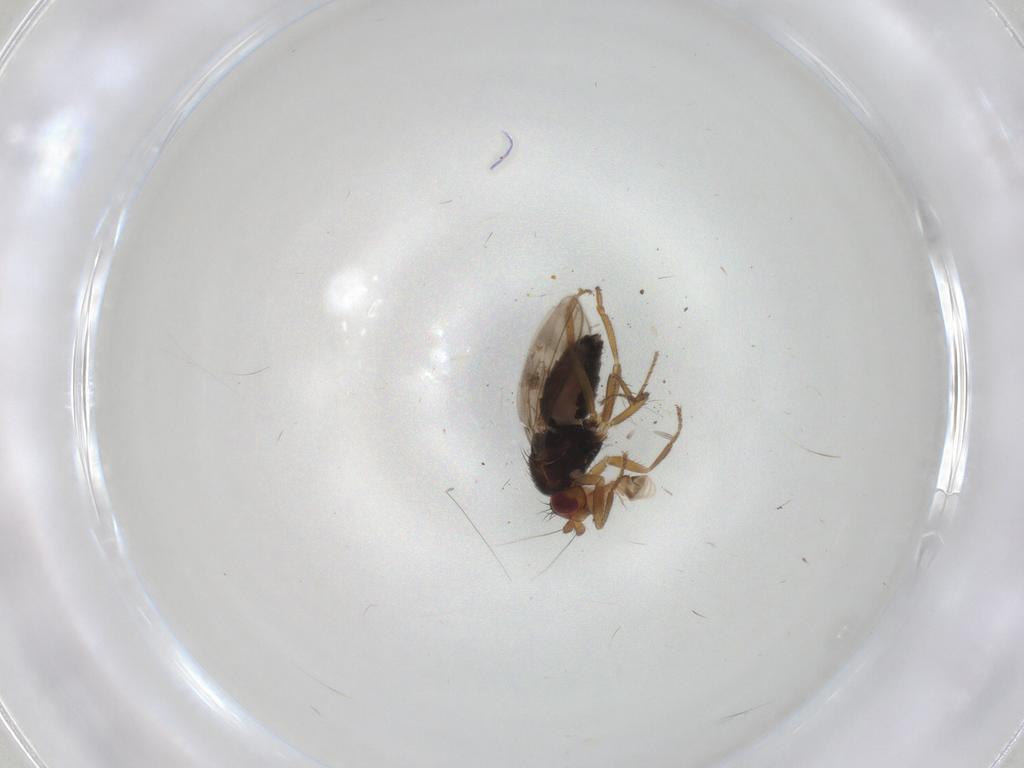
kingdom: Animalia
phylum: Arthropoda
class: Insecta
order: Diptera
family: Sphaeroceridae
